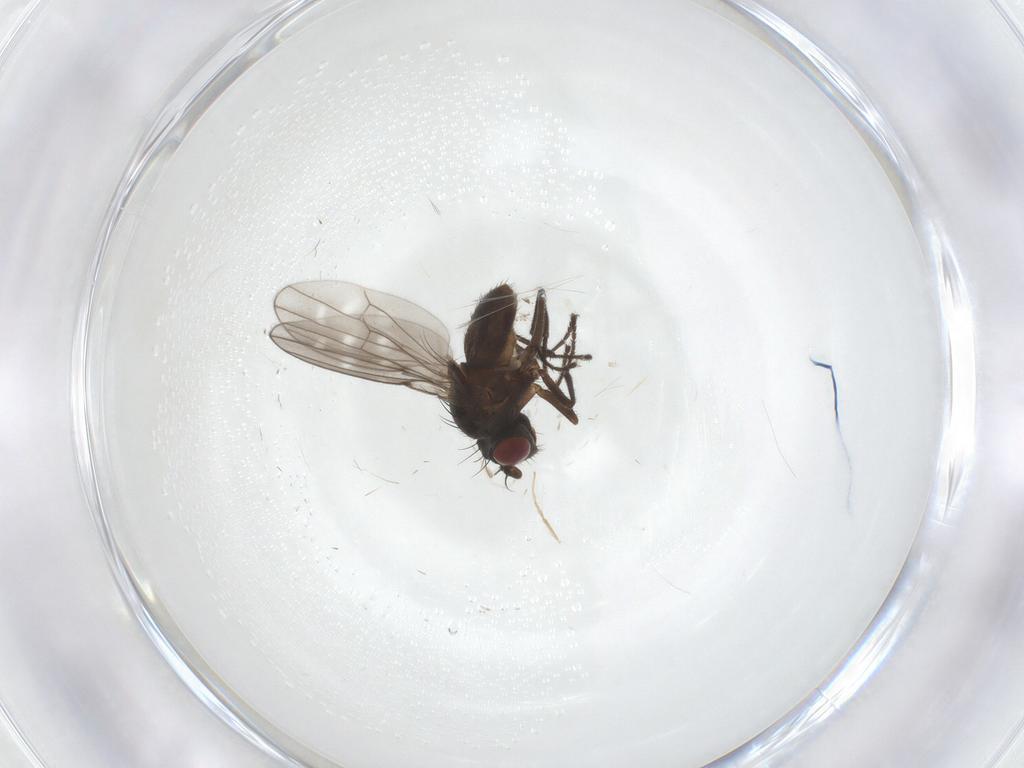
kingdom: Animalia
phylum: Arthropoda
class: Insecta
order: Diptera
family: Ephydridae
